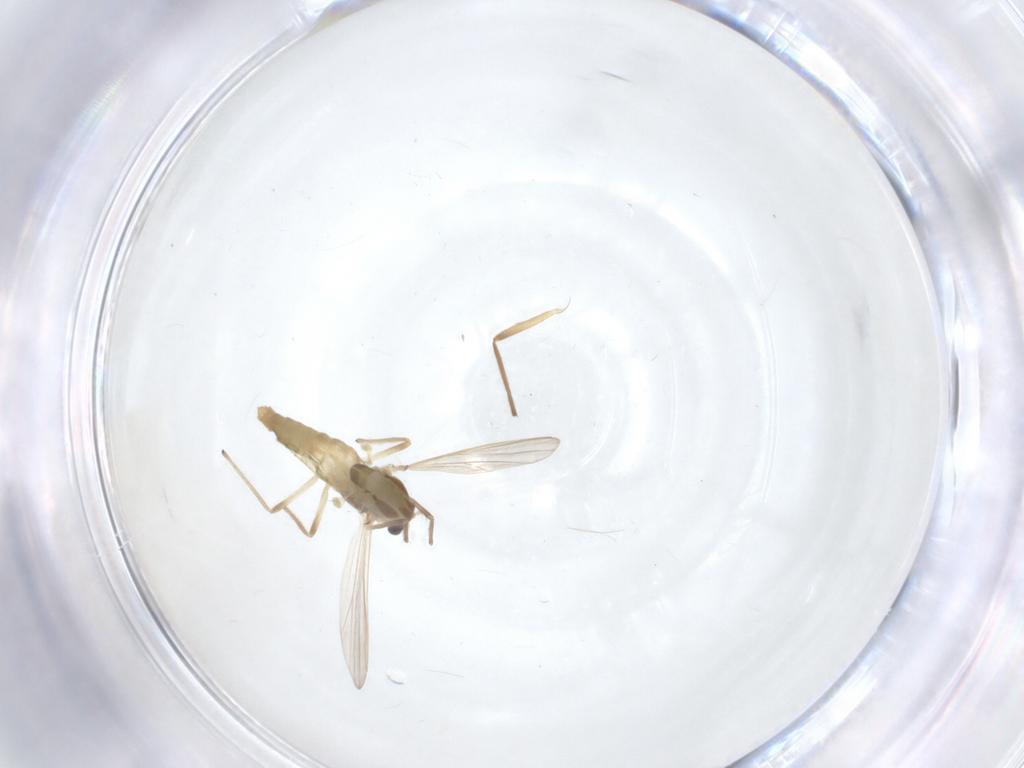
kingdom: Animalia
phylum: Arthropoda
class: Insecta
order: Diptera
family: Chironomidae
